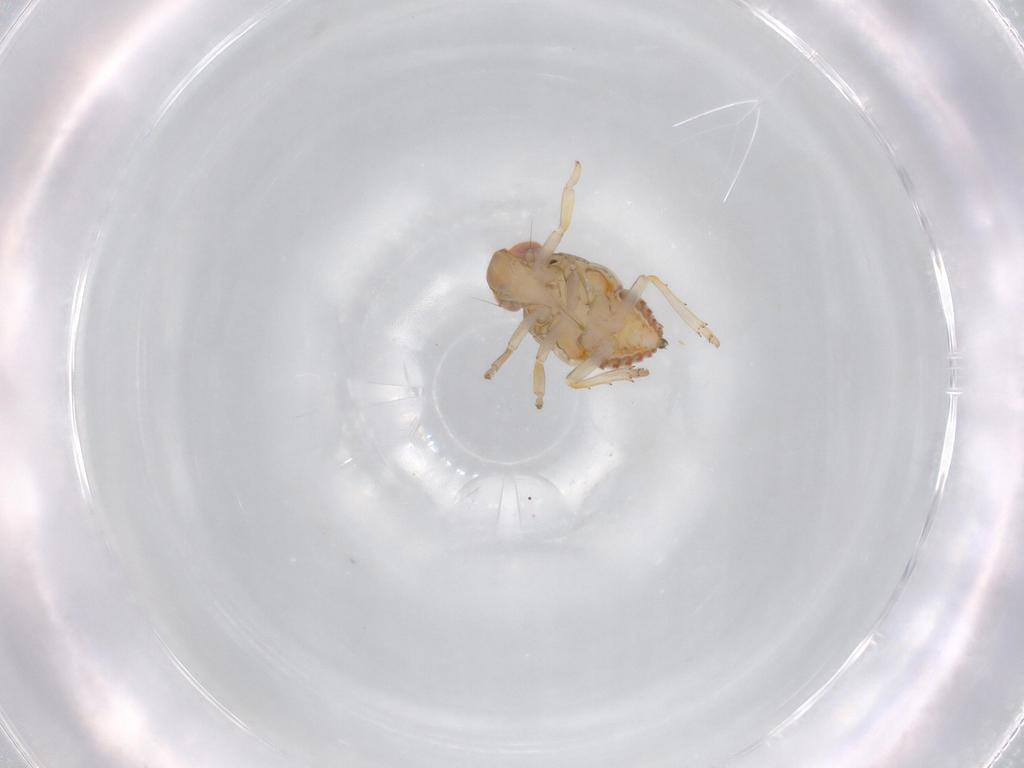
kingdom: Animalia
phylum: Arthropoda
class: Insecta
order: Hemiptera
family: Issidae
